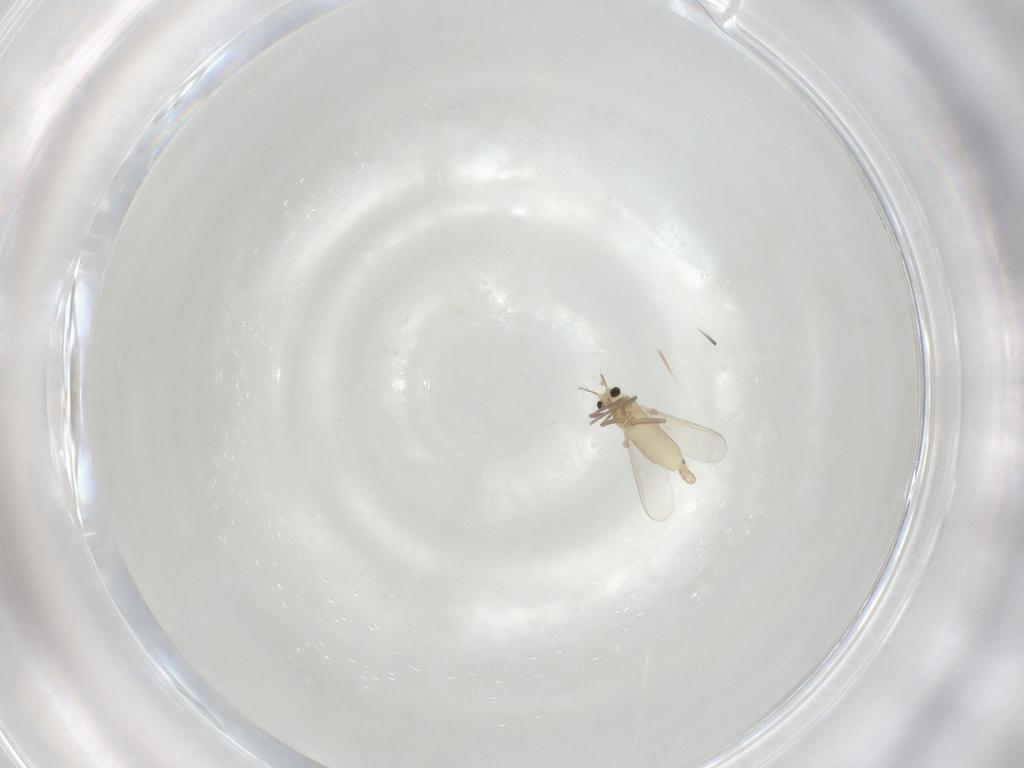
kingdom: Animalia
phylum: Arthropoda
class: Insecta
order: Diptera
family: Chironomidae
